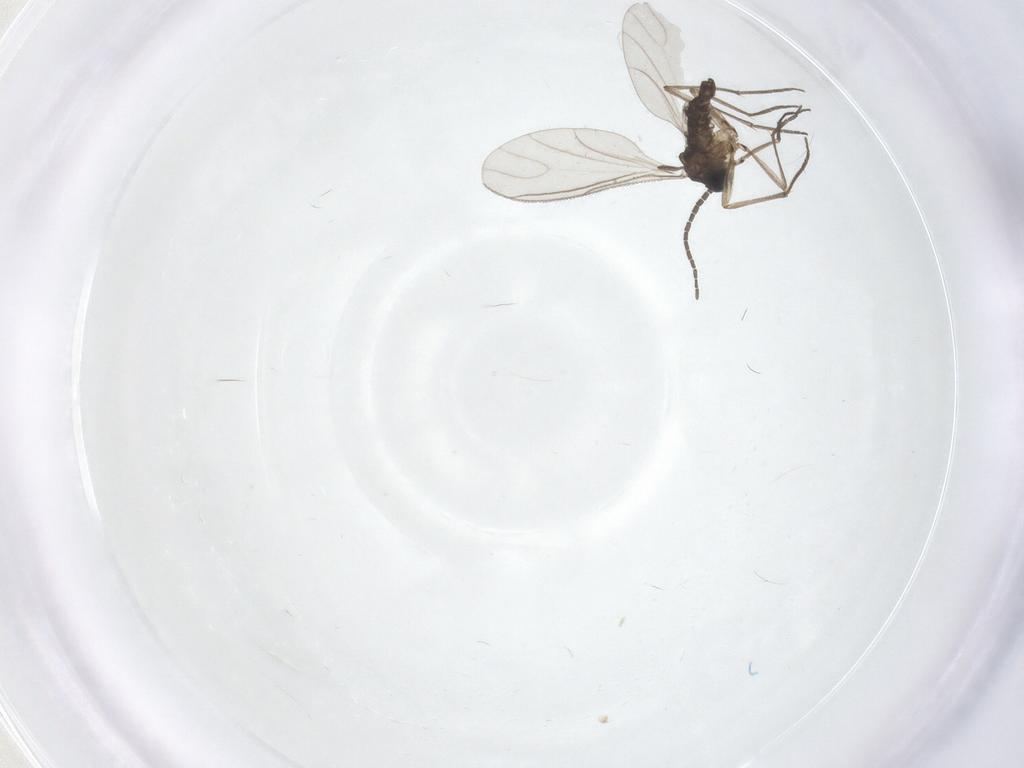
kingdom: Animalia
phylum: Arthropoda
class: Insecta
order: Diptera
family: Sciaridae
